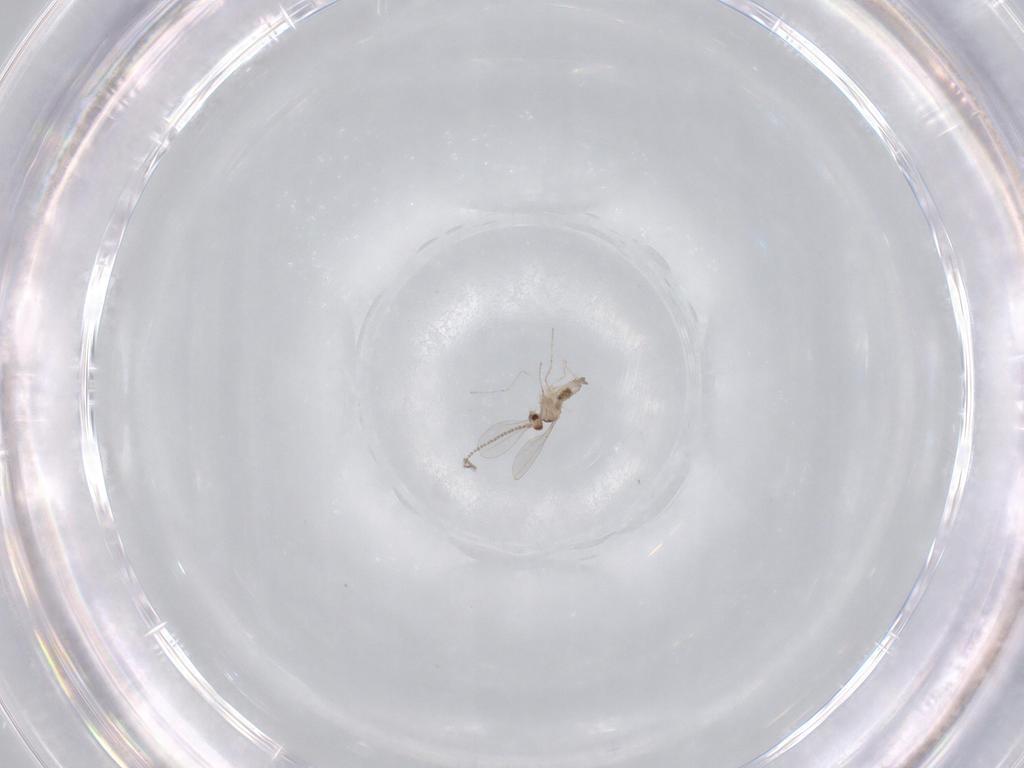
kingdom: Animalia
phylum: Arthropoda
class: Insecta
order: Diptera
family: Cecidomyiidae
